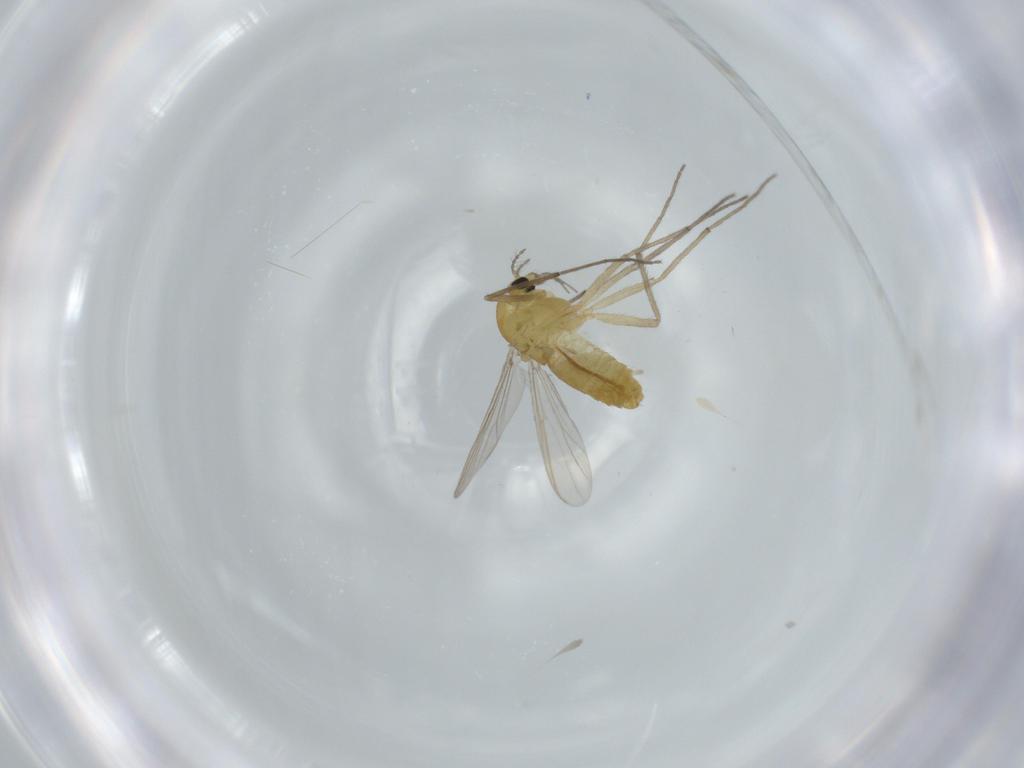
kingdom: Animalia
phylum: Arthropoda
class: Insecta
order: Diptera
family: Chironomidae
